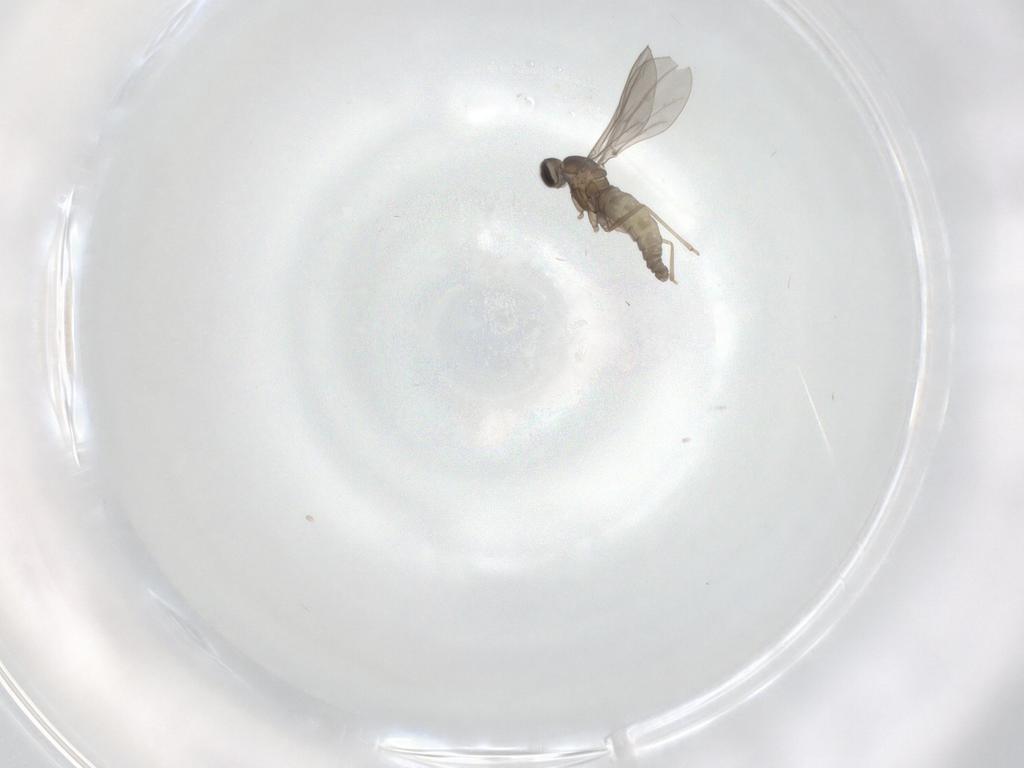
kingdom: Animalia
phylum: Arthropoda
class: Insecta
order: Diptera
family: Cecidomyiidae
